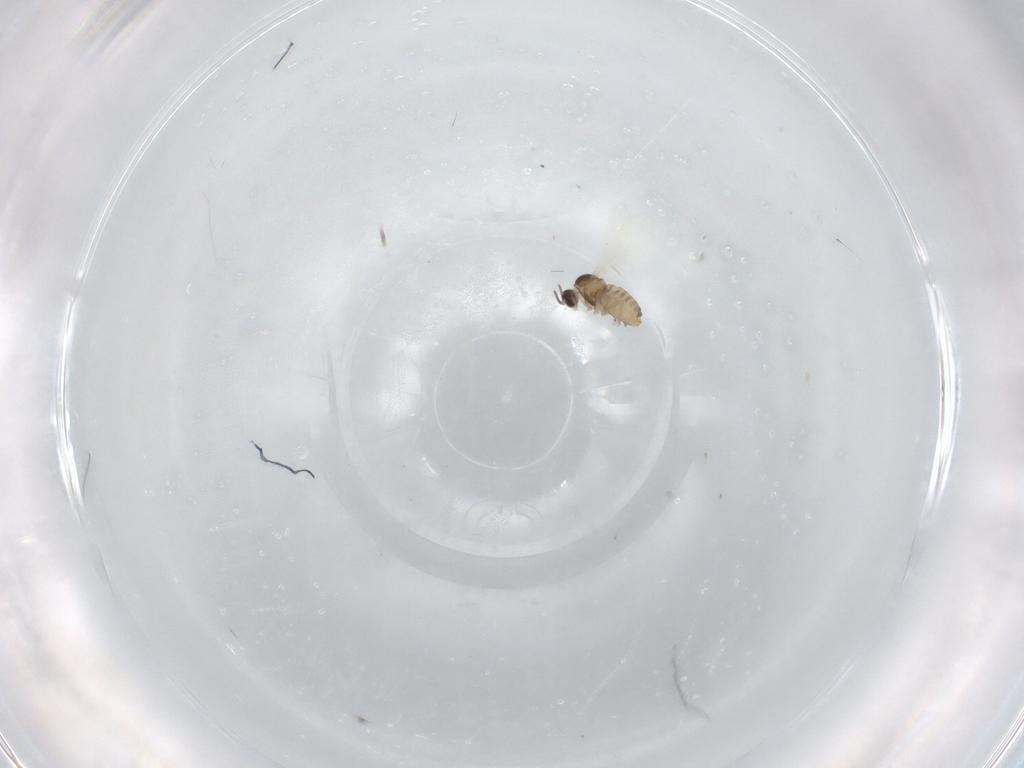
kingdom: Animalia
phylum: Arthropoda
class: Insecta
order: Diptera
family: Cecidomyiidae
